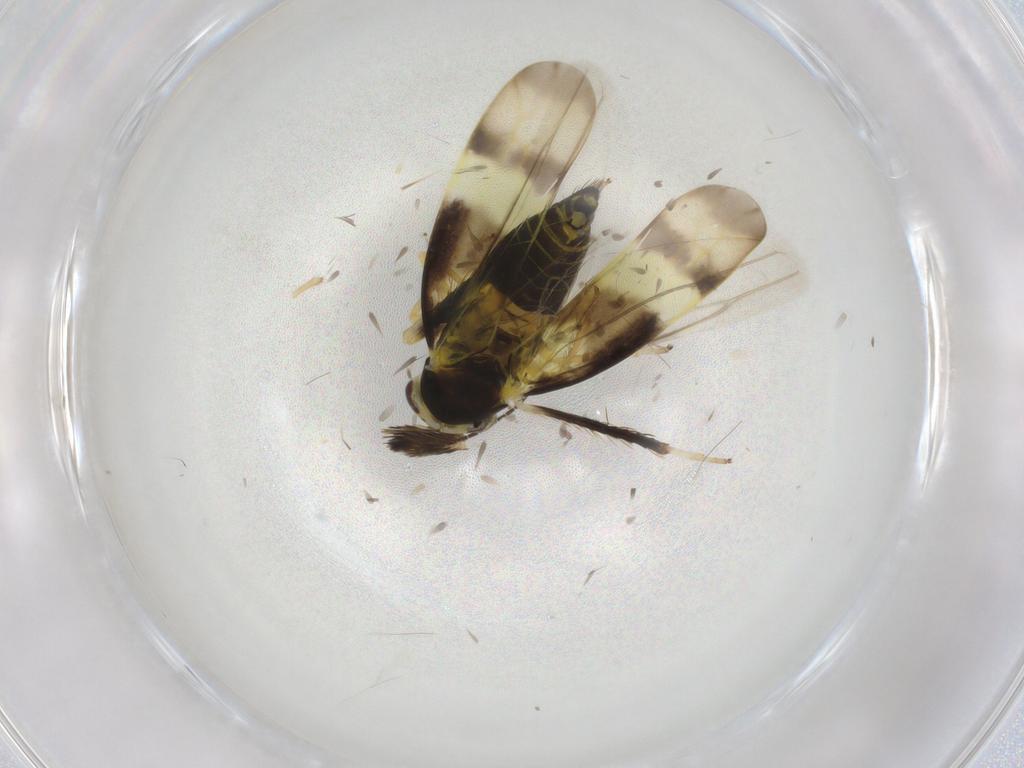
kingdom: Animalia
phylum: Arthropoda
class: Insecta
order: Hemiptera
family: Cicadellidae
